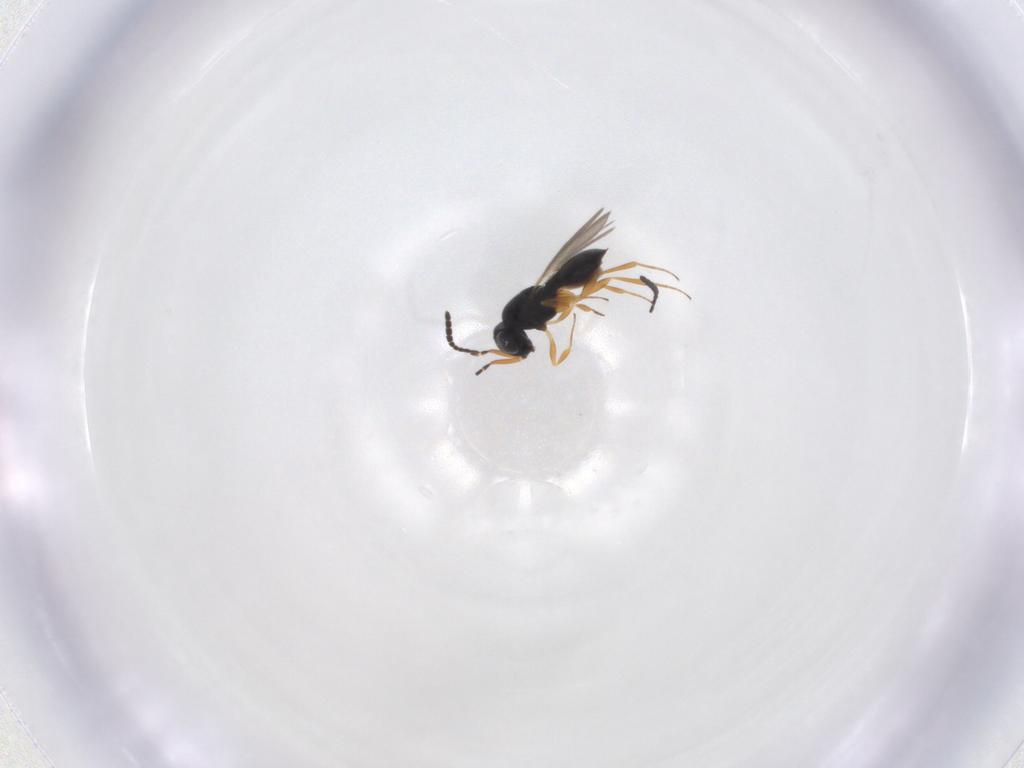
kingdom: Animalia
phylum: Arthropoda
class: Insecta
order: Hymenoptera
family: Scelionidae
